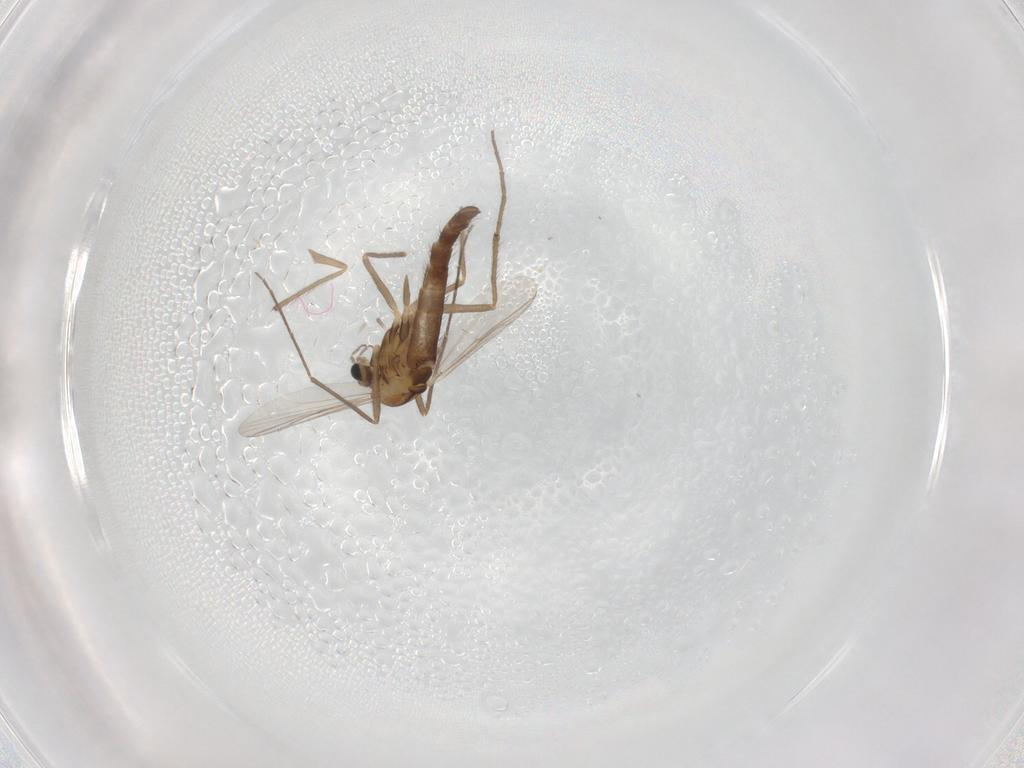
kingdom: Animalia
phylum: Arthropoda
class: Insecta
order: Diptera
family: Chironomidae
